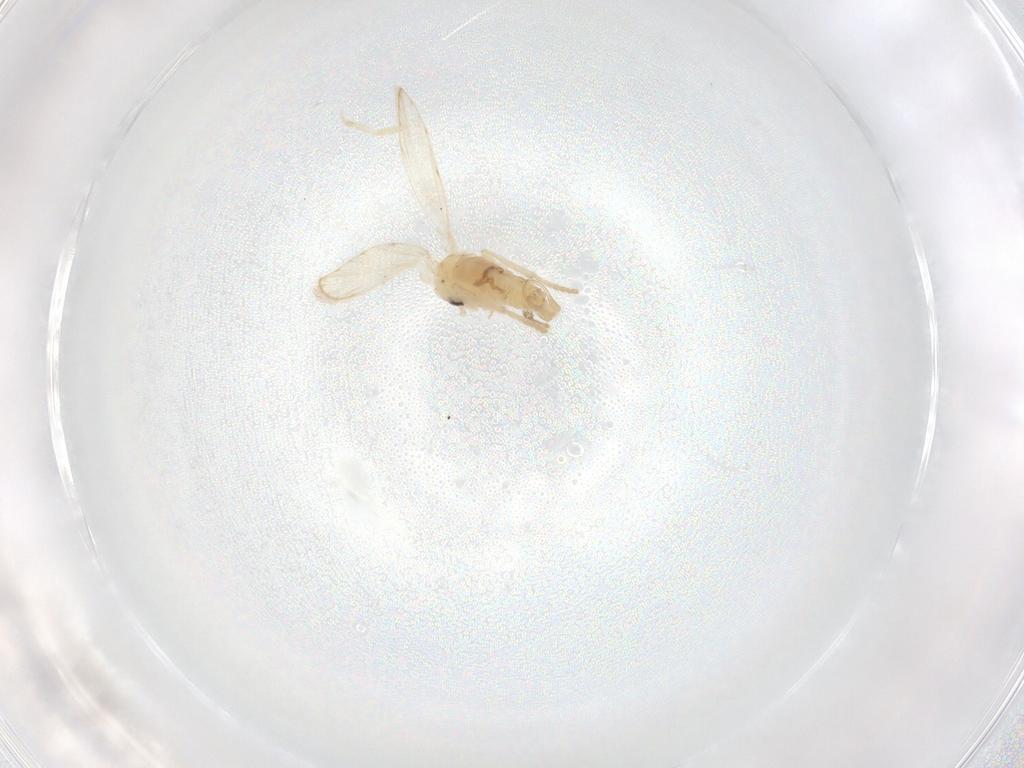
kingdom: Animalia
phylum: Arthropoda
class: Insecta
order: Diptera
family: Psychodidae
